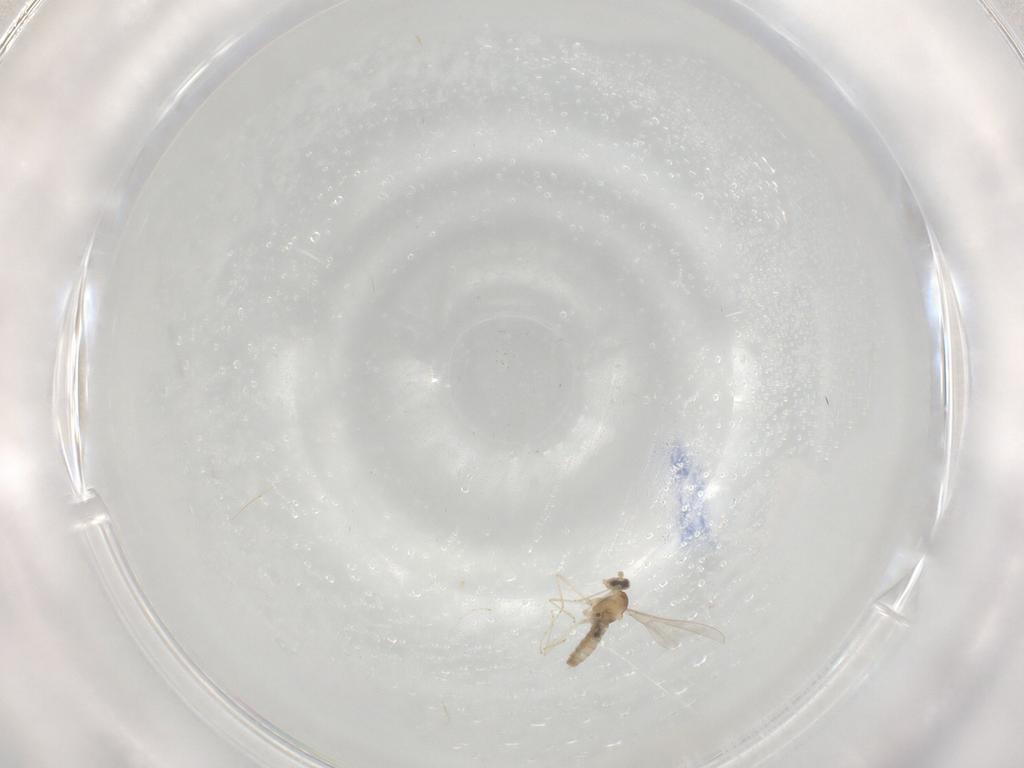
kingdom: Animalia
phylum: Arthropoda
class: Insecta
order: Diptera
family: Cecidomyiidae
